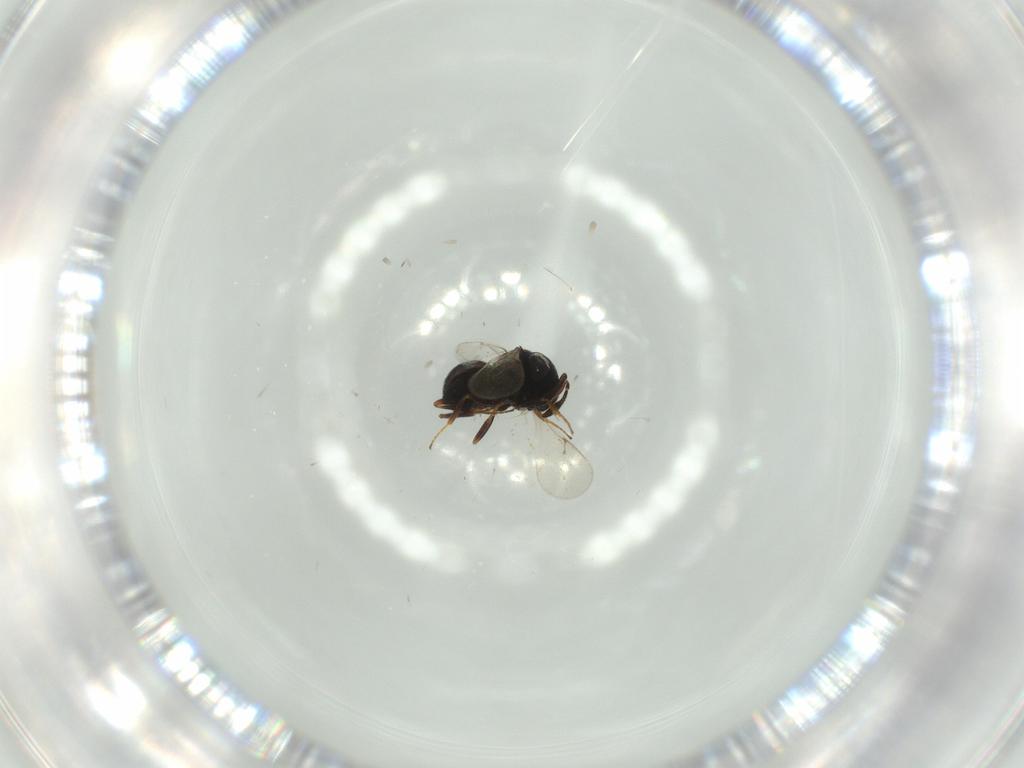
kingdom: Animalia
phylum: Arthropoda
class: Insecta
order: Hymenoptera
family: Scelionidae
